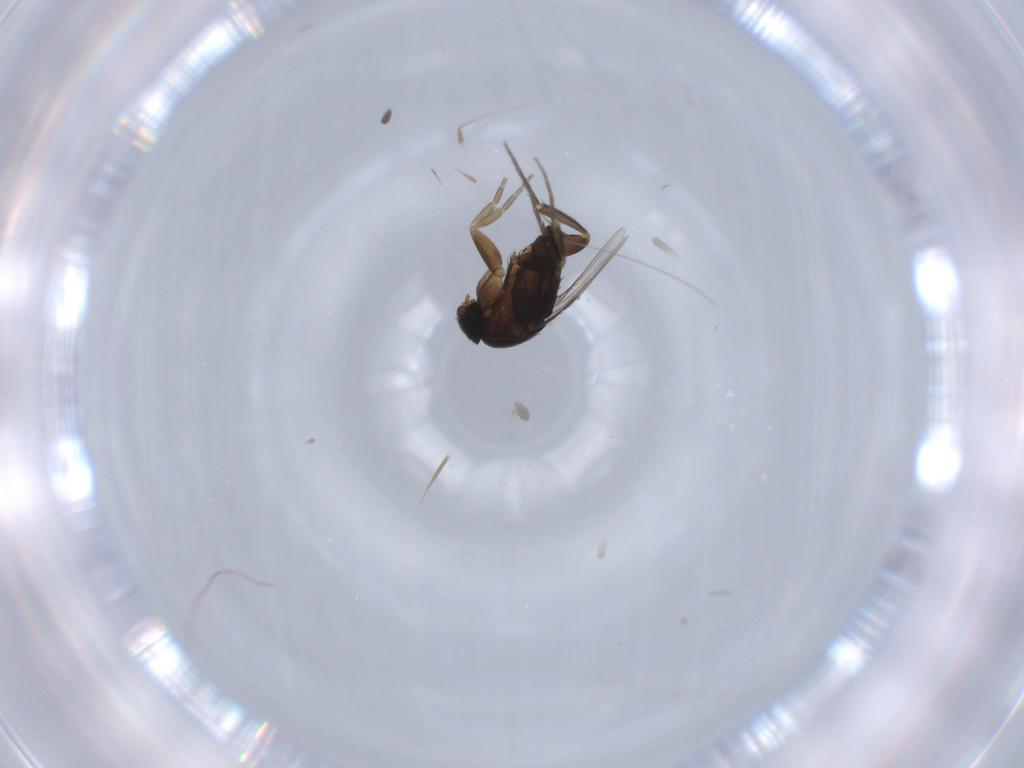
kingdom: Animalia
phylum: Arthropoda
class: Insecta
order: Diptera
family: Phoridae
